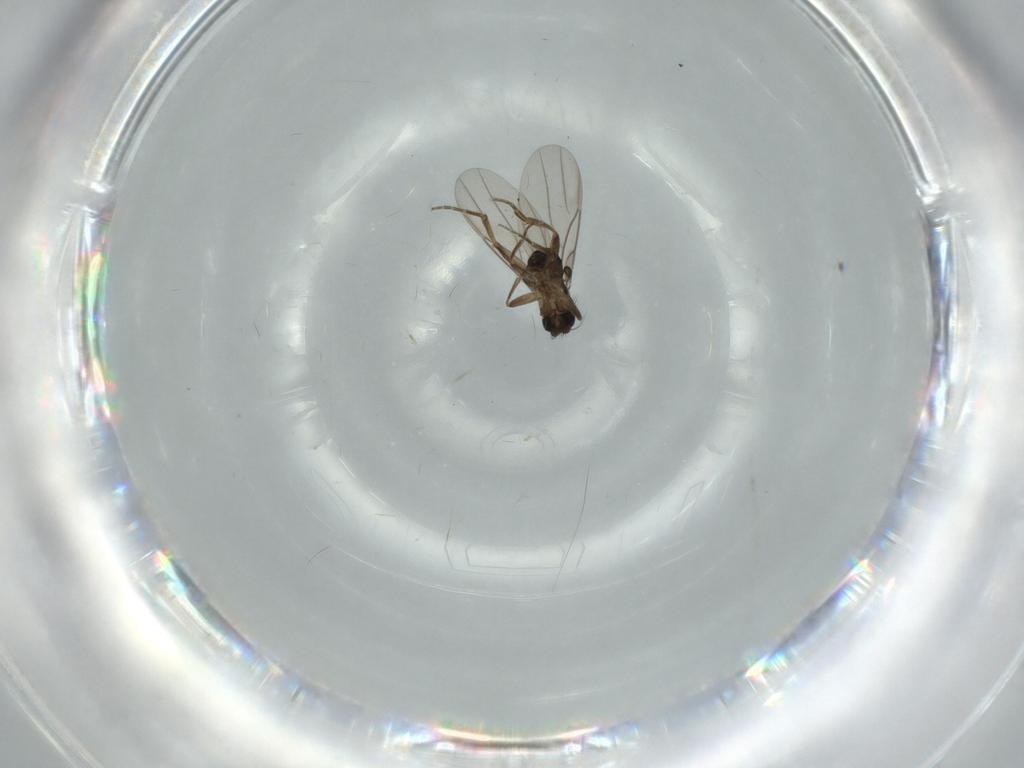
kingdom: Animalia
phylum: Arthropoda
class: Insecta
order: Diptera
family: Phoridae
